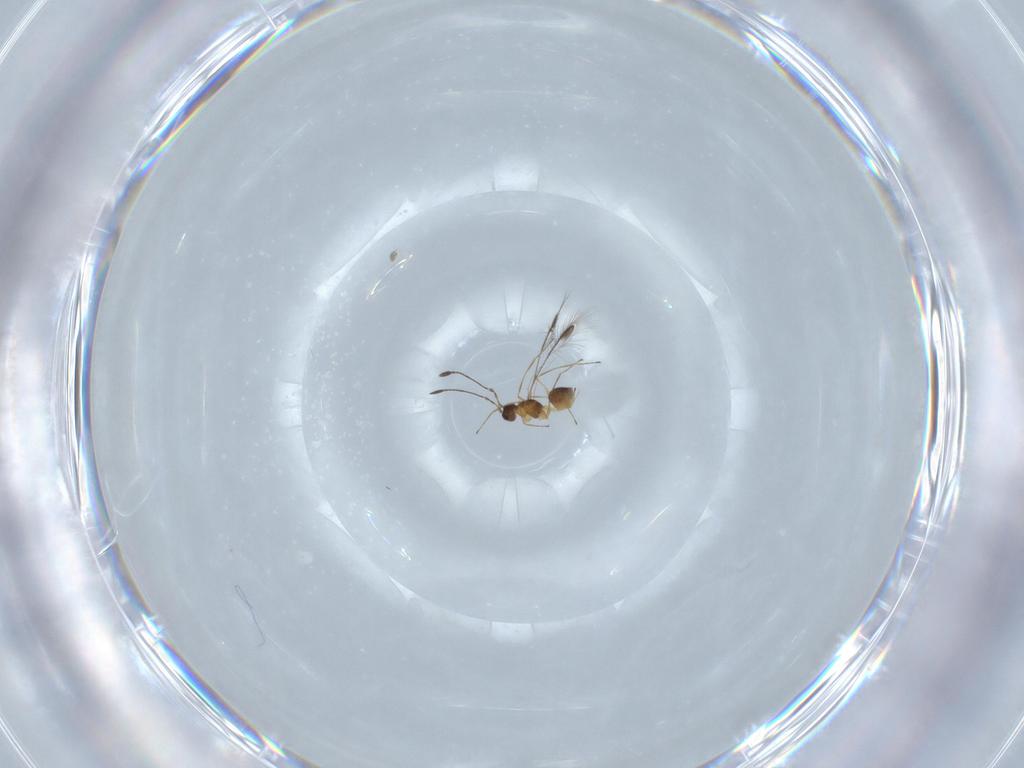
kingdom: Animalia
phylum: Arthropoda
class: Insecta
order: Hymenoptera
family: Mymaridae
